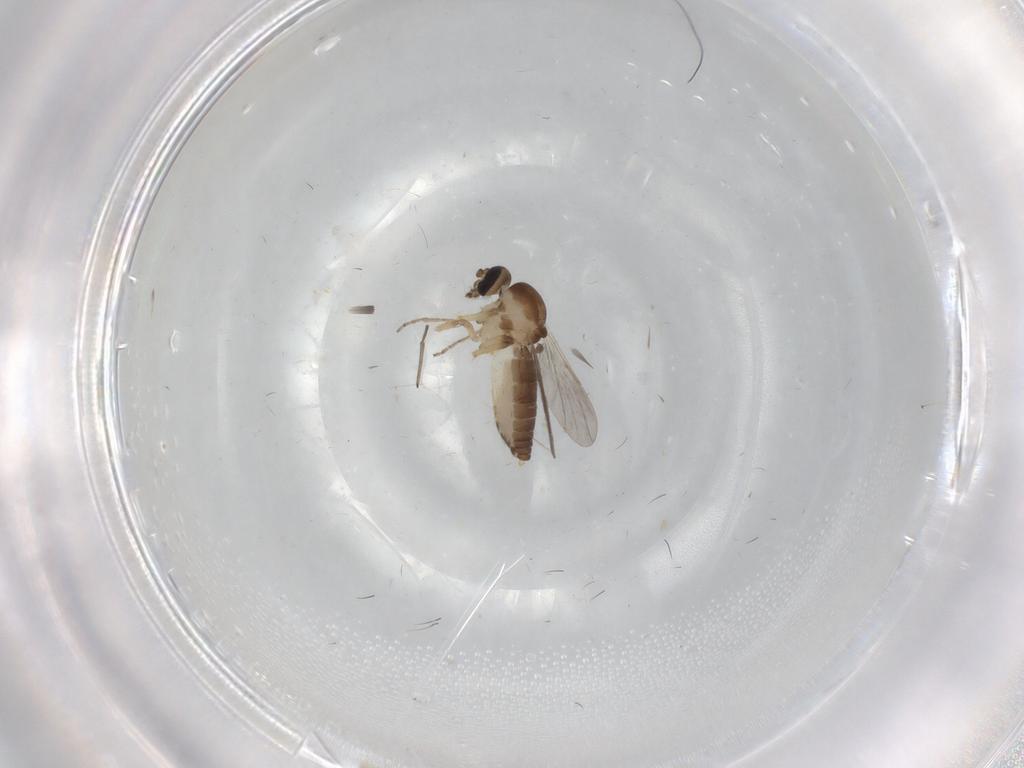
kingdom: Animalia
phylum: Arthropoda
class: Insecta
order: Diptera
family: Ceratopogonidae
